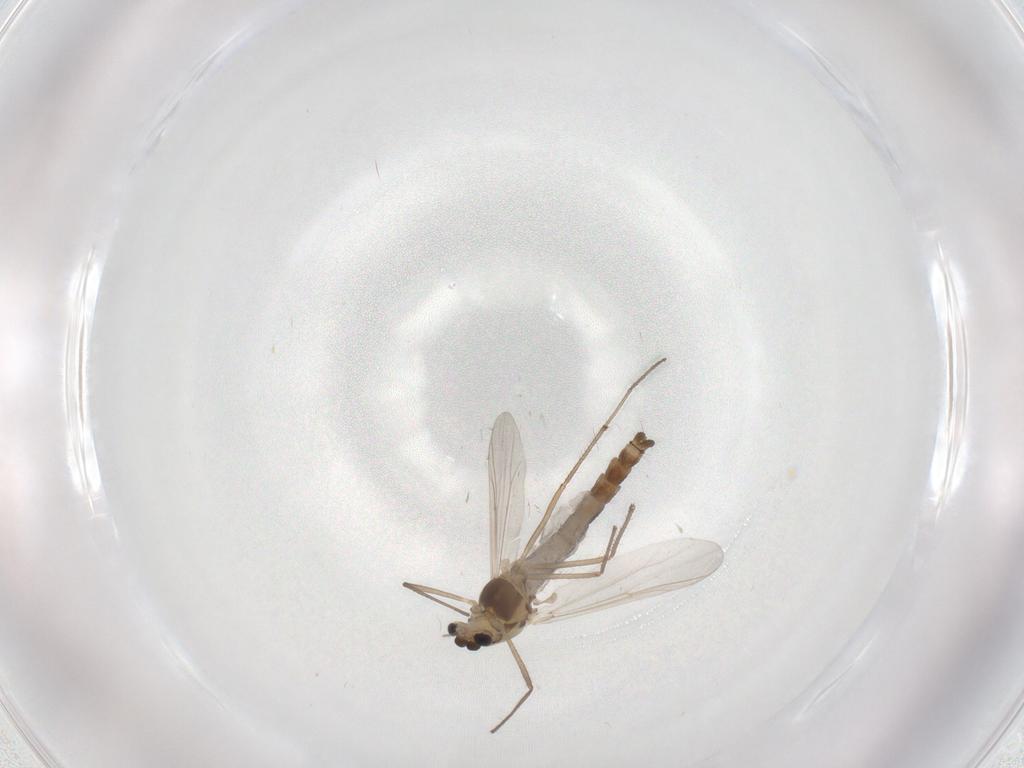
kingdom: Animalia
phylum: Arthropoda
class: Insecta
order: Diptera
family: Chironomidae
